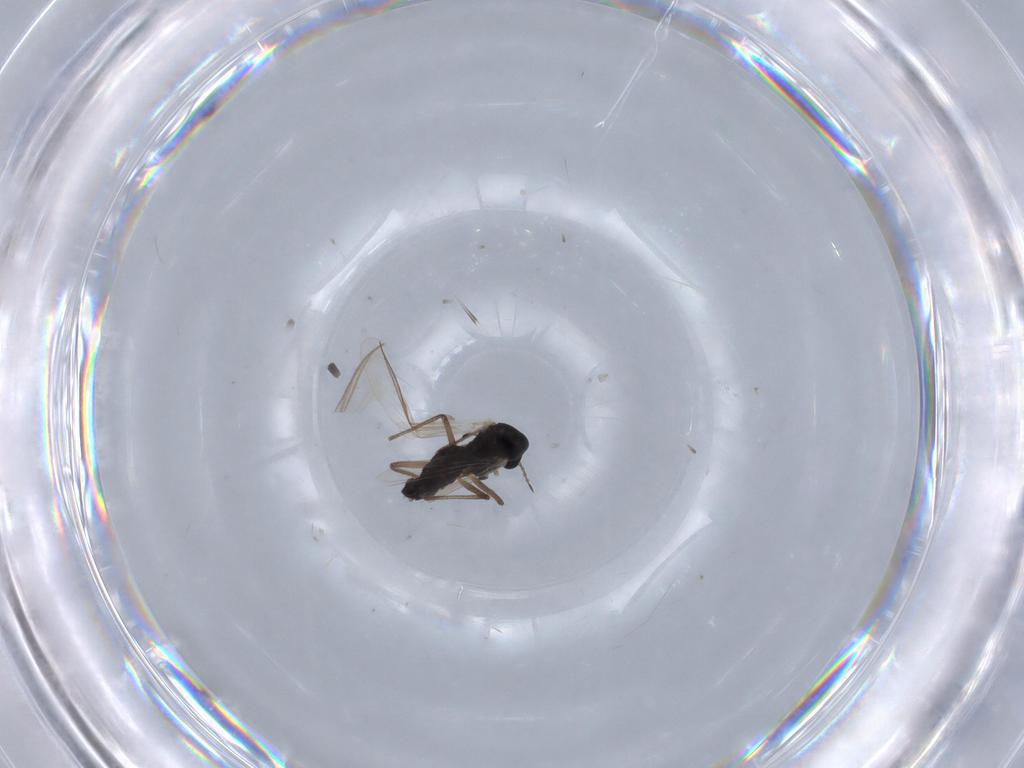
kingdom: Animalia
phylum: Arthropoda
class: Insecta
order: Diptera
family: Chironomidae
